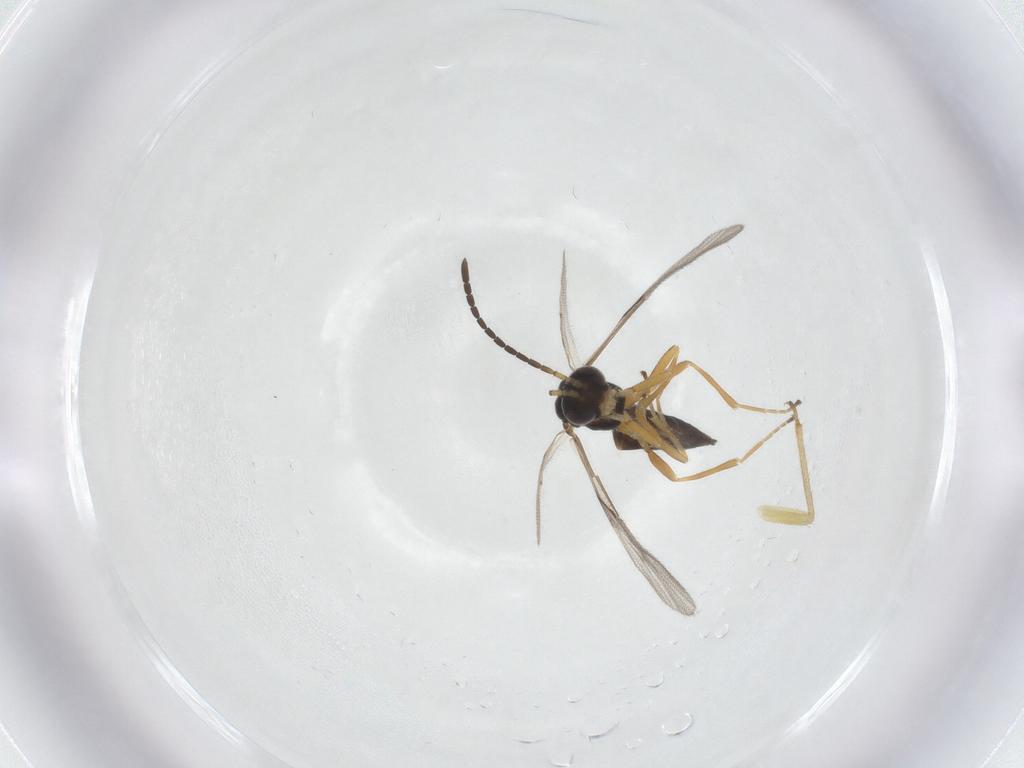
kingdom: Animalia
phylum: Arthropoda
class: Insecta
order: Hymenoptera
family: Braconidae
